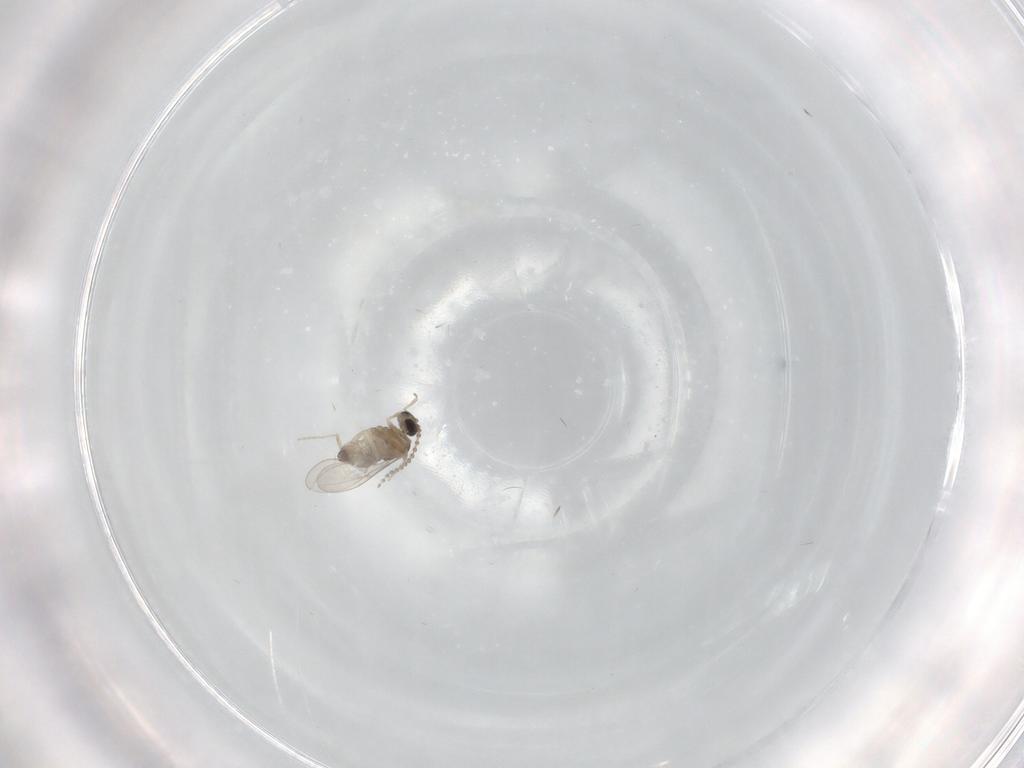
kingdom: Animalia
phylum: Arthropoda
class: Insecta
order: Diptera
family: Cecidomyiidae
